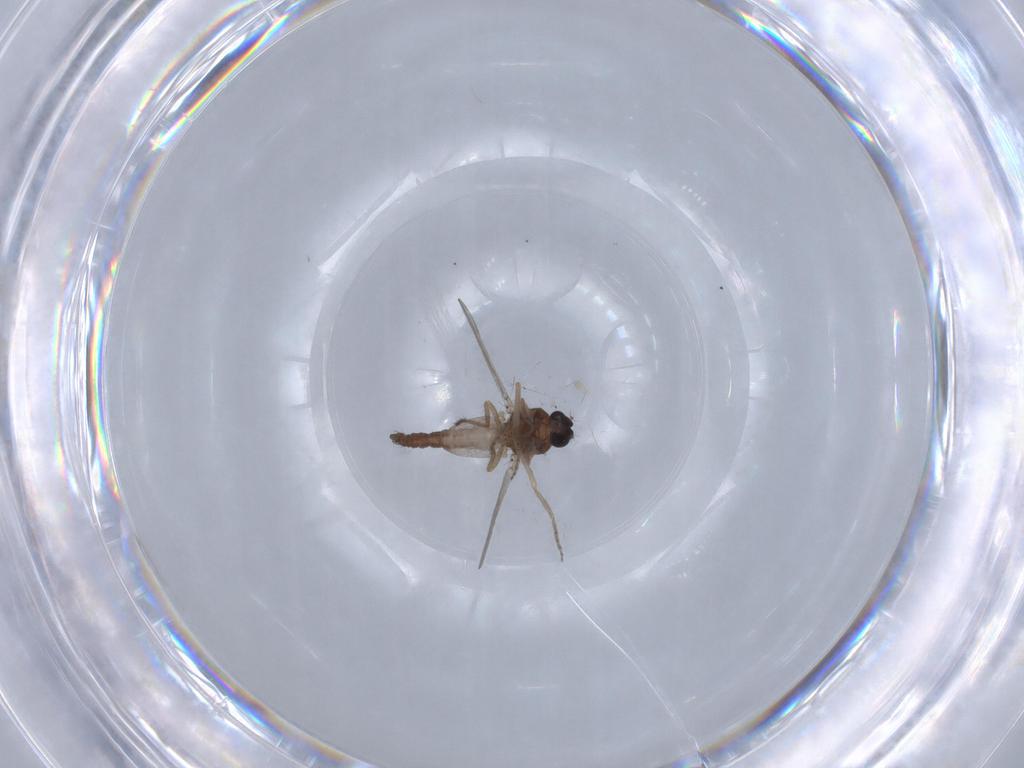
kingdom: Animalia
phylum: Arthropoda
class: Insecta
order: Diptera
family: Ceratopogonidae
